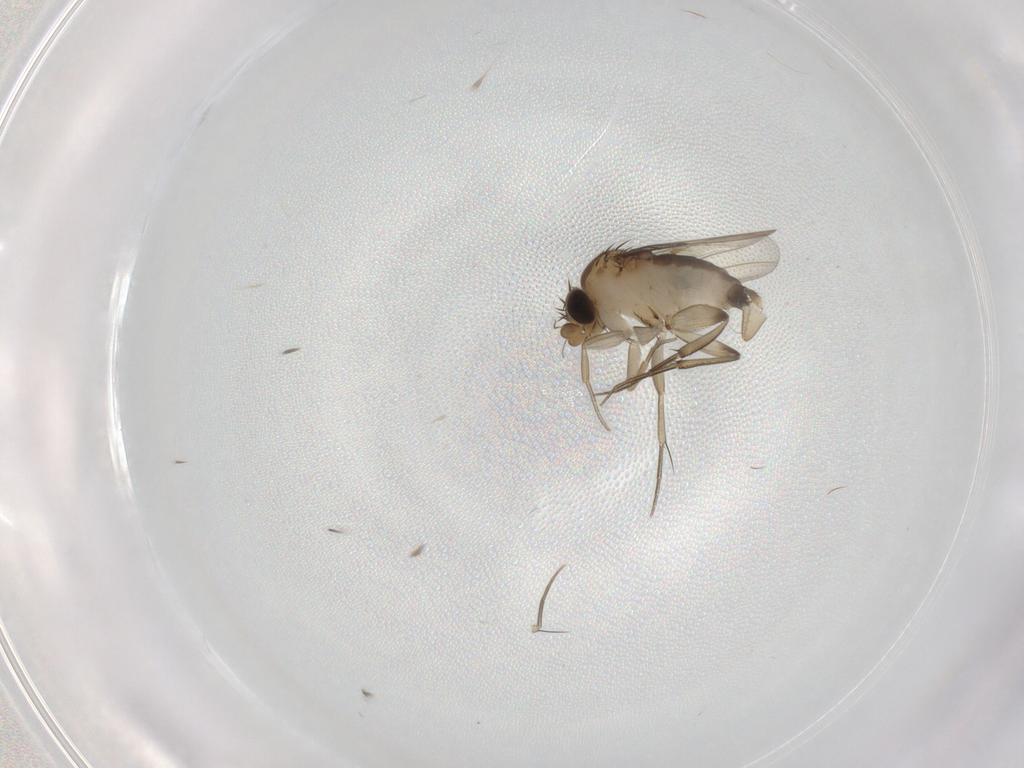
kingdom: Animalia
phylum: Arthropoda
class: Insecta
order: Diptera
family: Phoridae
